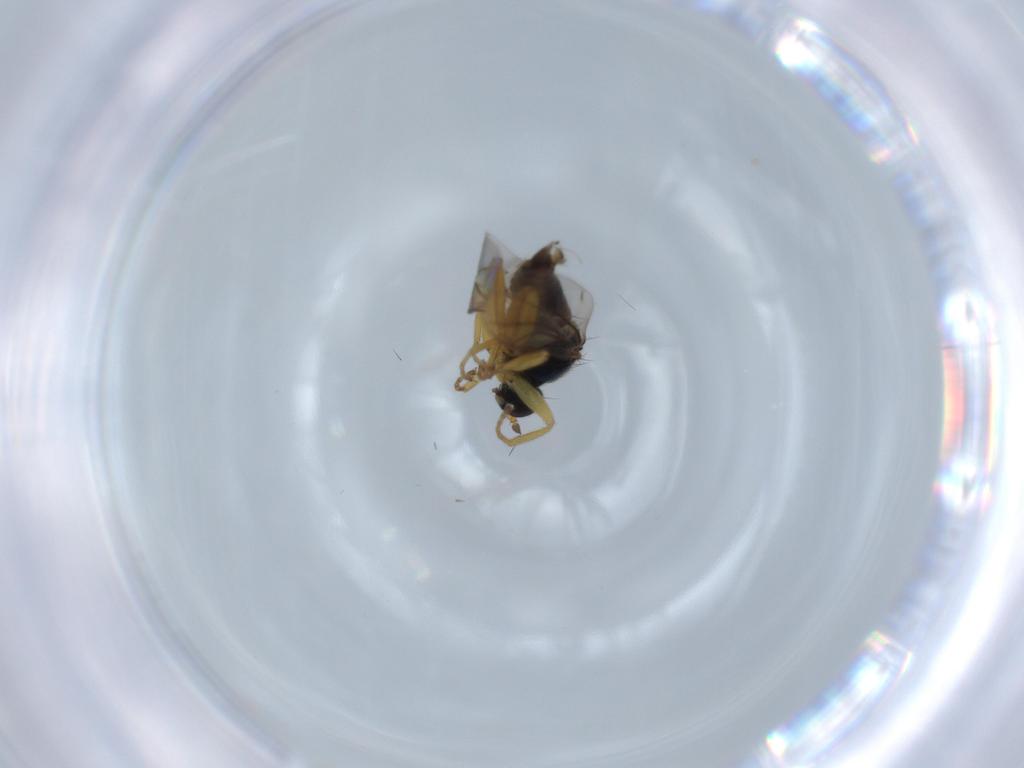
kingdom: Animalia
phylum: Arthropoda
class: Insecta
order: Diptera
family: Hybotidae
